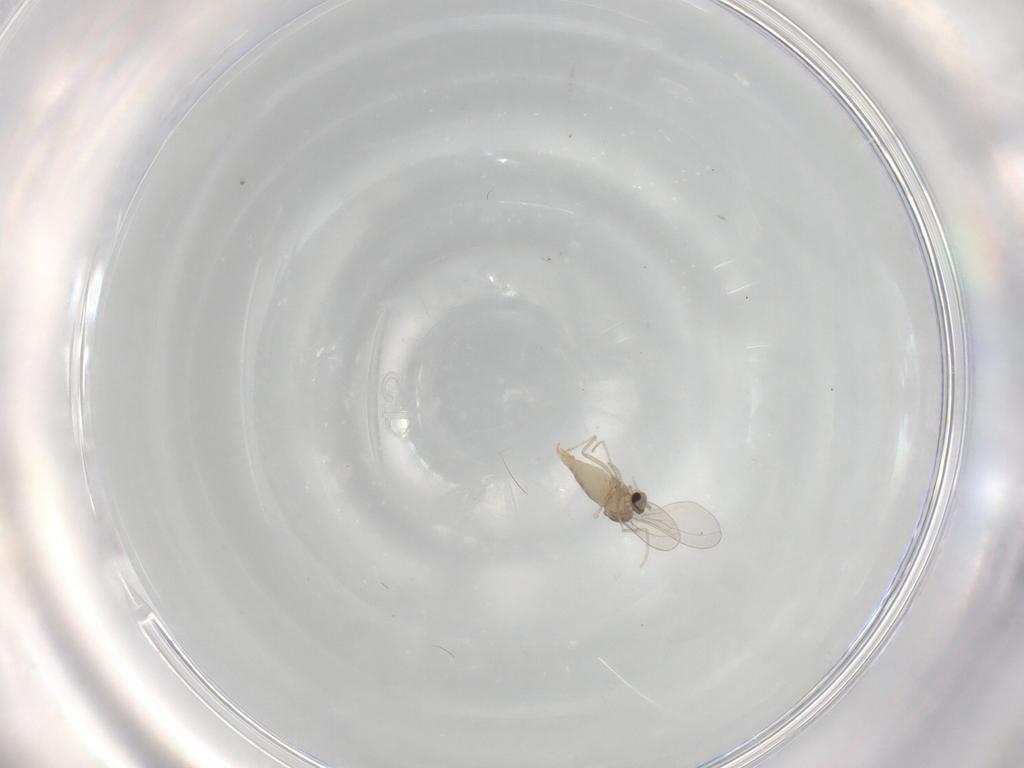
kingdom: Animalia
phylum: Arthropoda
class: Insecta
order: Diptera
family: Cecidomyiidae
